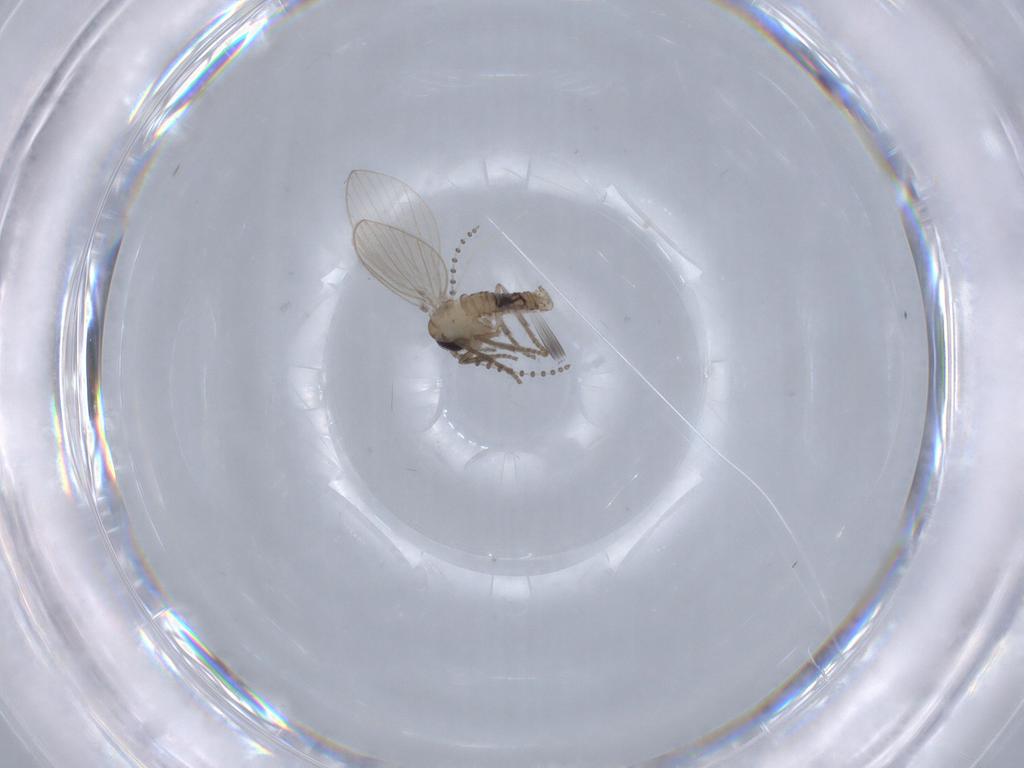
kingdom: Animalia
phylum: Arthropoda
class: Insecta
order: Diptera
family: Psychodidae
